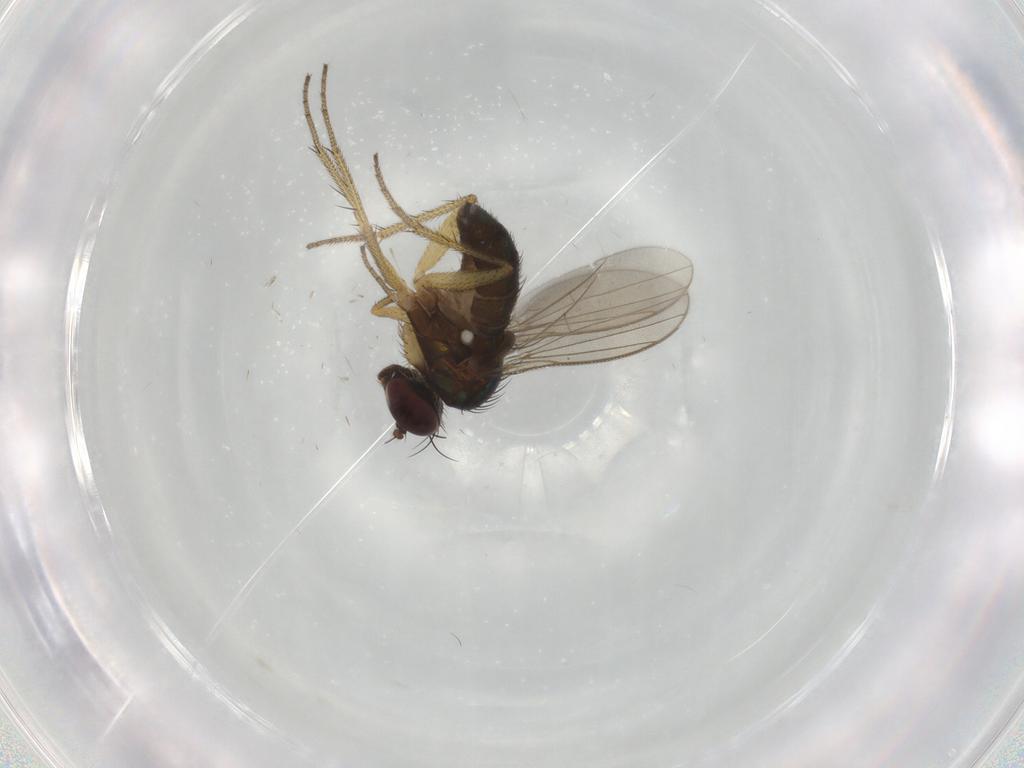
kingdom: Animalia
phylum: Arthropoda
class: Insecta
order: Diptera
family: Dolichopodidae
